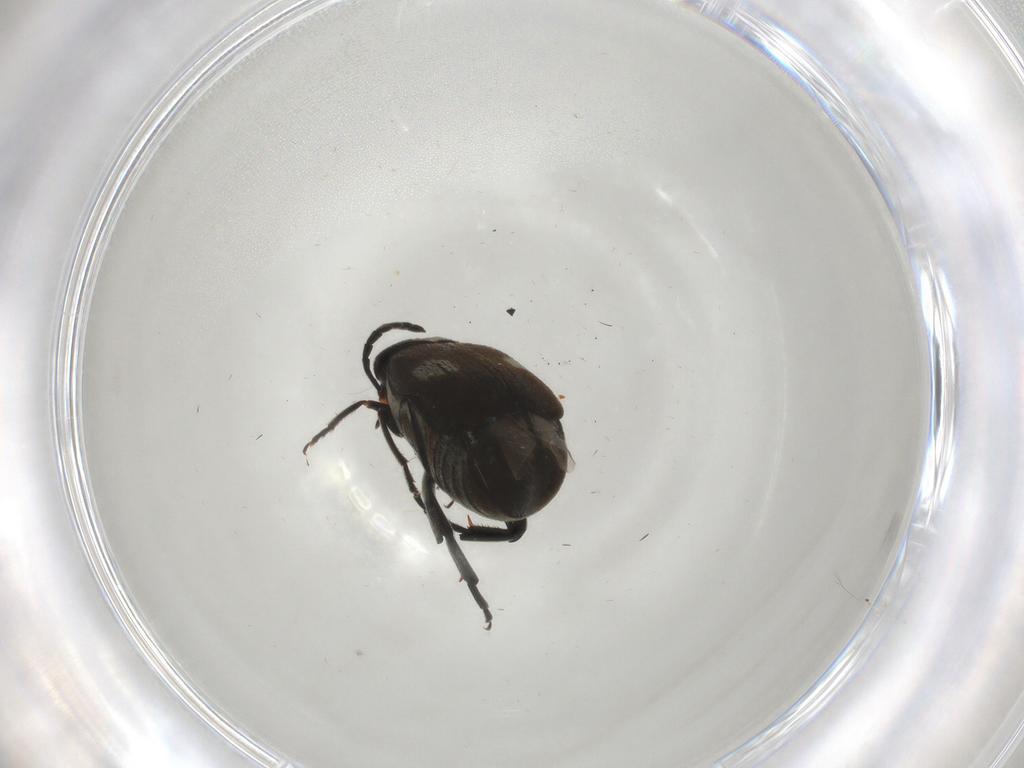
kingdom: Animalia
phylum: Arthropoda
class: Insecta
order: Coleoptera
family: Chrysomelidae
